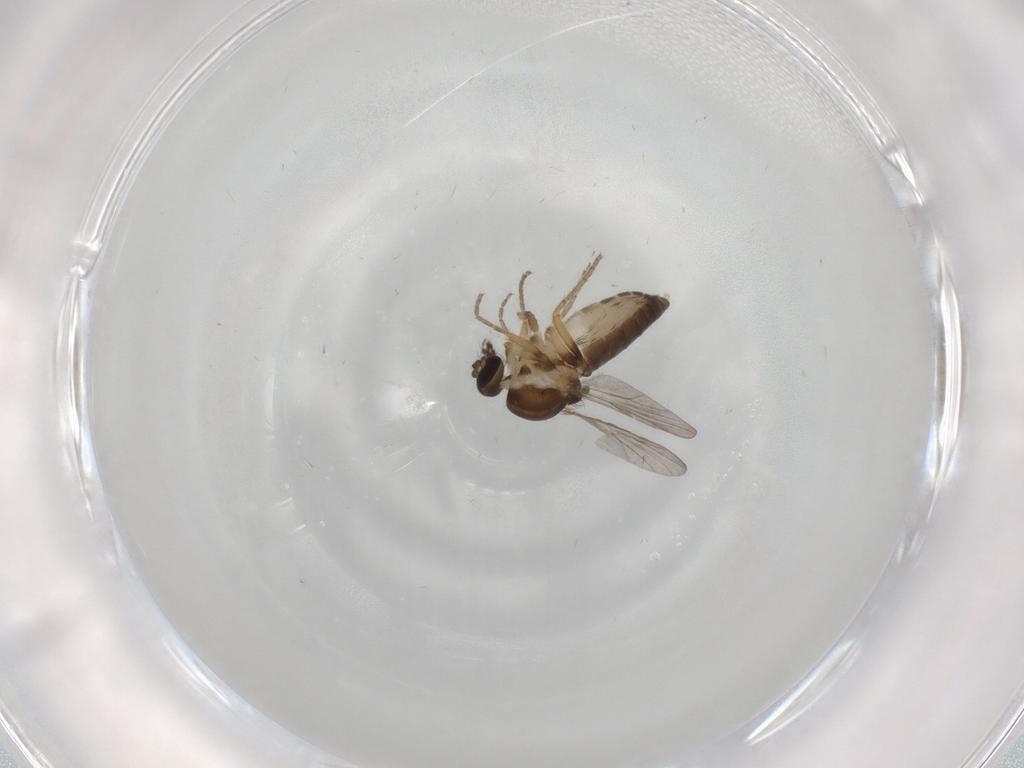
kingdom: Animalia
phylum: Arthropoda
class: Insecta
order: Diptera
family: Ceratopogonidae
